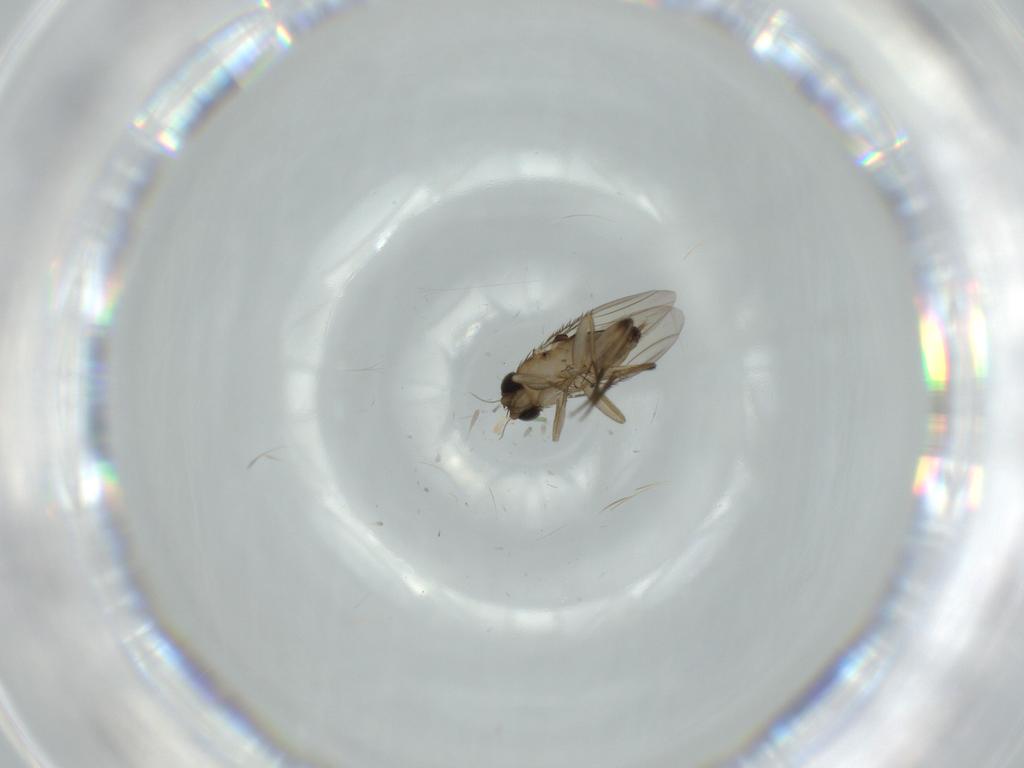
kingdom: Animalia
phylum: Arthropoda
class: Insecta
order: Diptera
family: Phoridae
